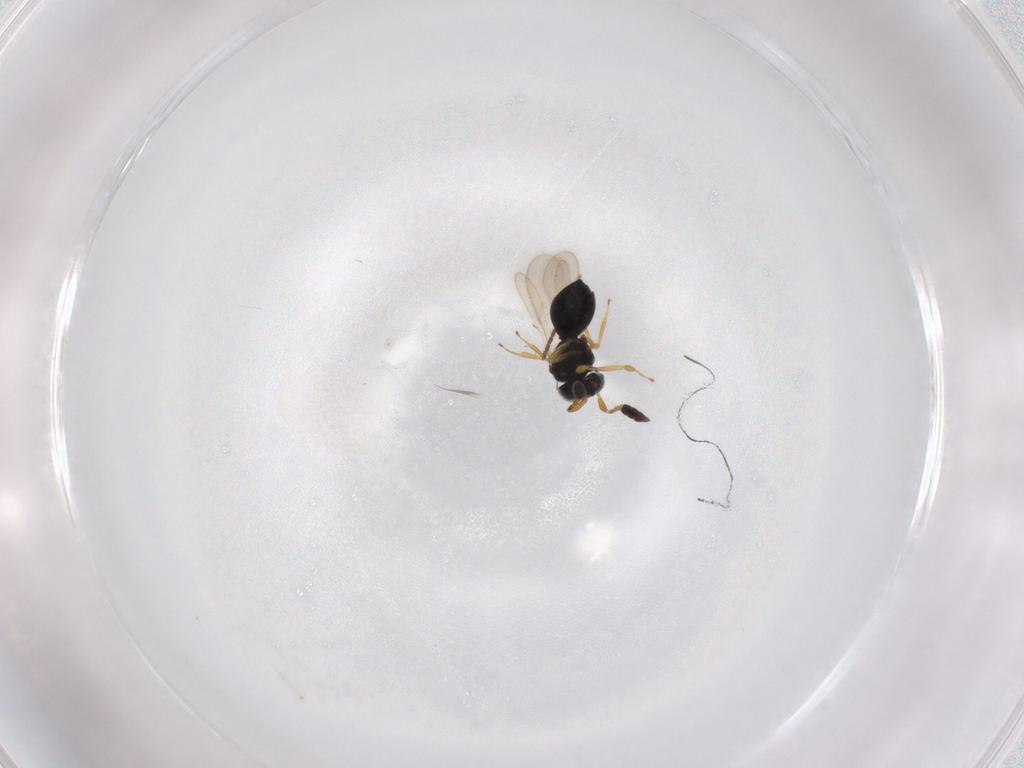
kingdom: Animalia
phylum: Arthropoda
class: Insecta
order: Hymenoptera
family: Scelionidae
